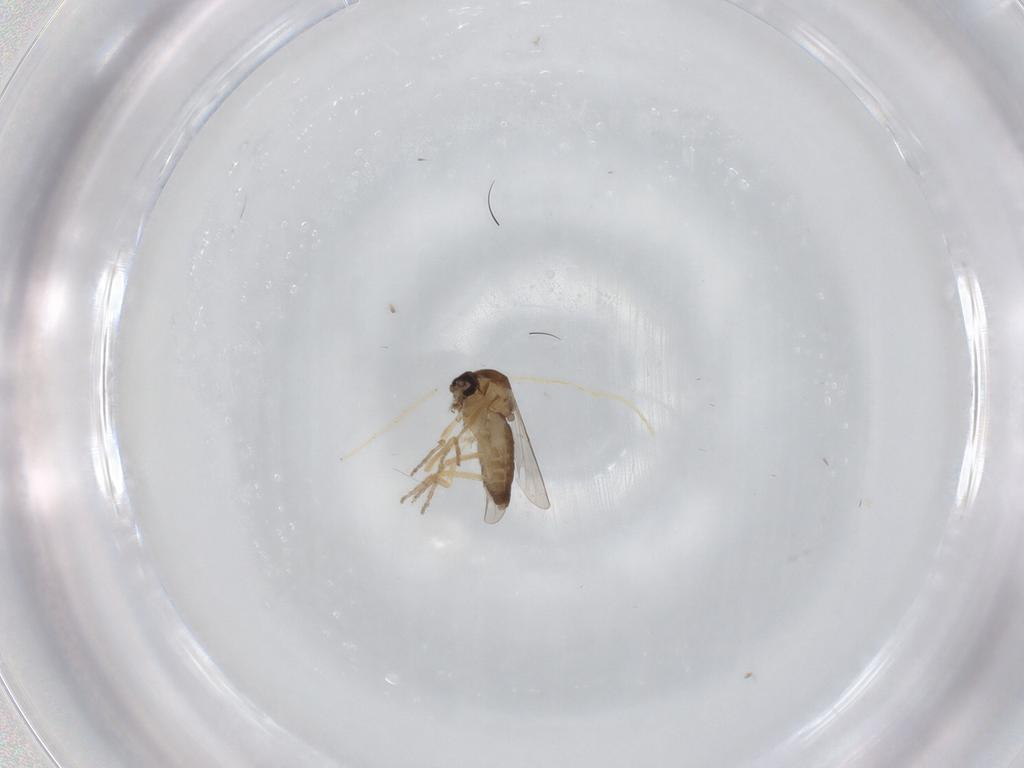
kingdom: Animalia
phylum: Arthropoda
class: Insecta
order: Diptera
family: Ceratopogonidae
